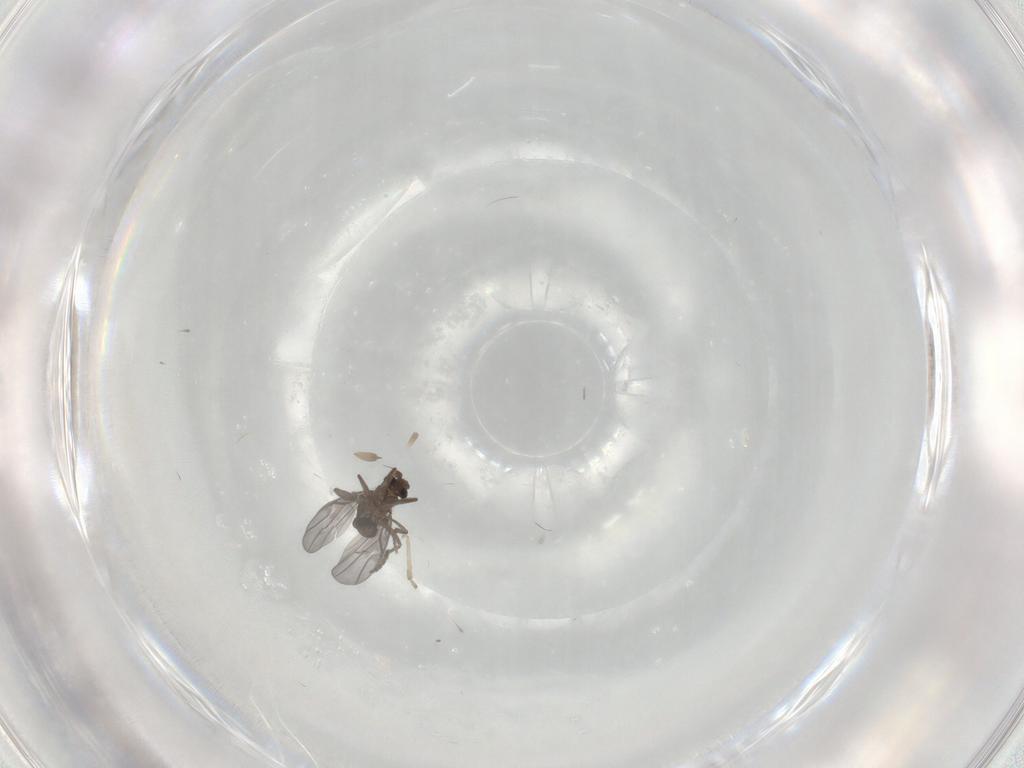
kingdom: Animalia
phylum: Arthropoda
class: Insecta
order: Diptera
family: Phoridae
